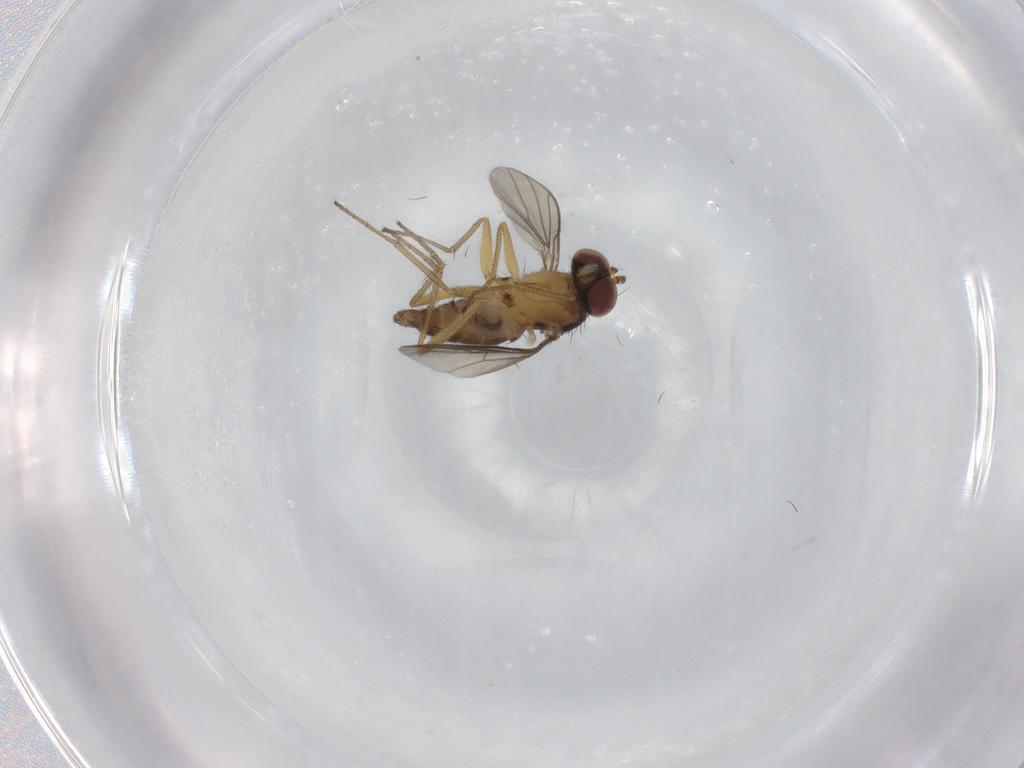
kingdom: Animalia
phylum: Arthropoda
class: Insecta
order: Diptera
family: Dolichopodidae
